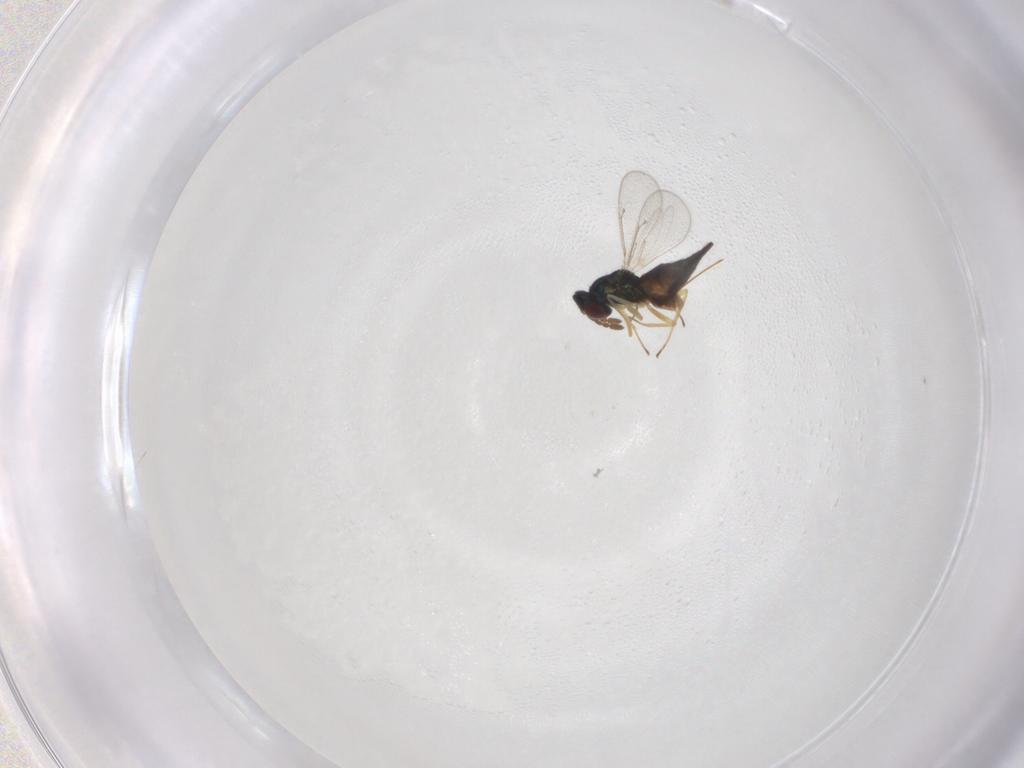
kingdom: Animalia
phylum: Arthropoda
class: Insecta
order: Hymenoptera
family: Eulophidae
